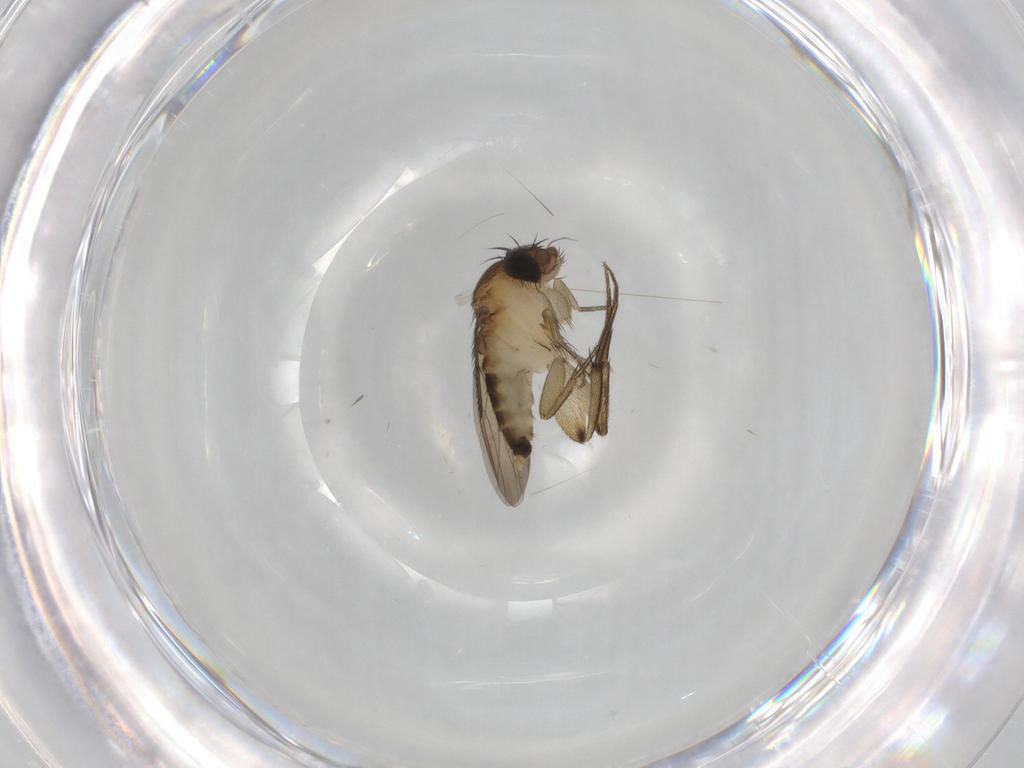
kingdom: Animalia
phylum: Arthropoda
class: Insecta
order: Diptera
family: Phoridae
